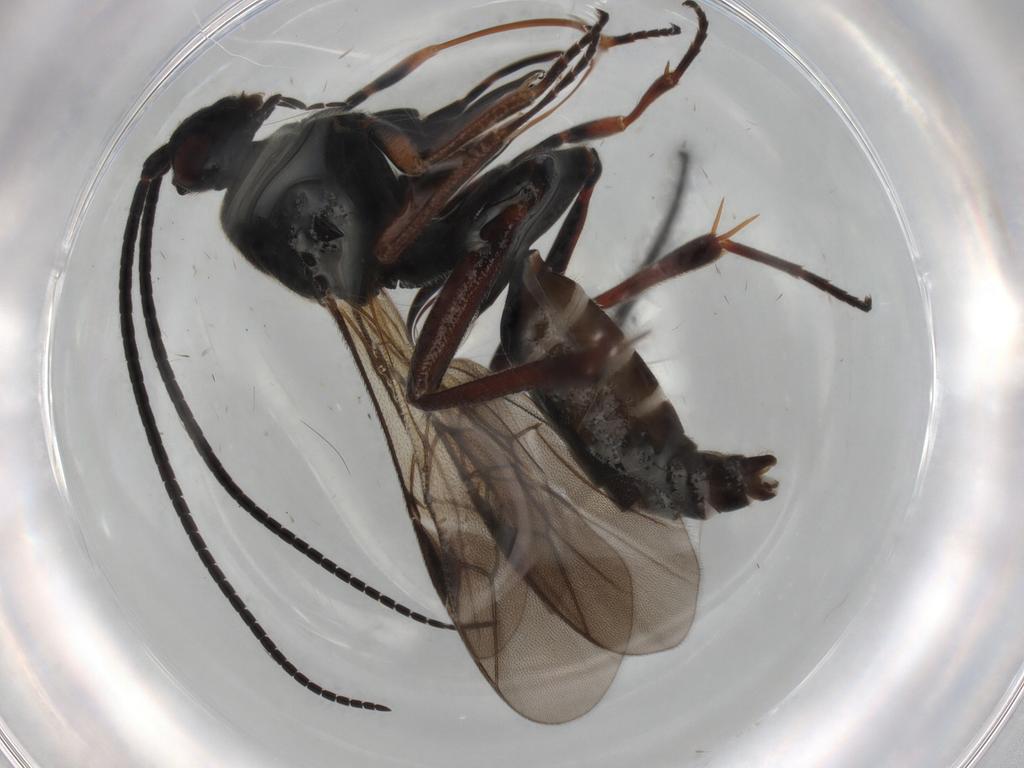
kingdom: Animalia
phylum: Arthropoda
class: Insecta
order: Hymenoptera
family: Braconidae
